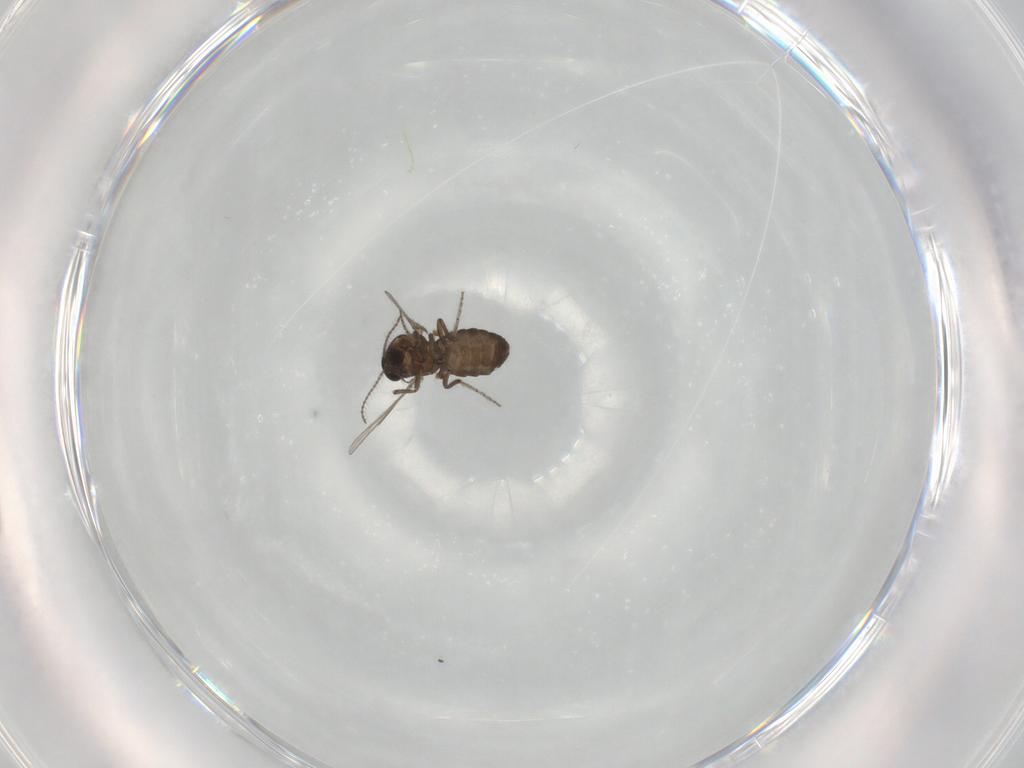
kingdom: Animalia
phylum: Arthropoda
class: Insecta
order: Diptera
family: Ceratopogonidae
